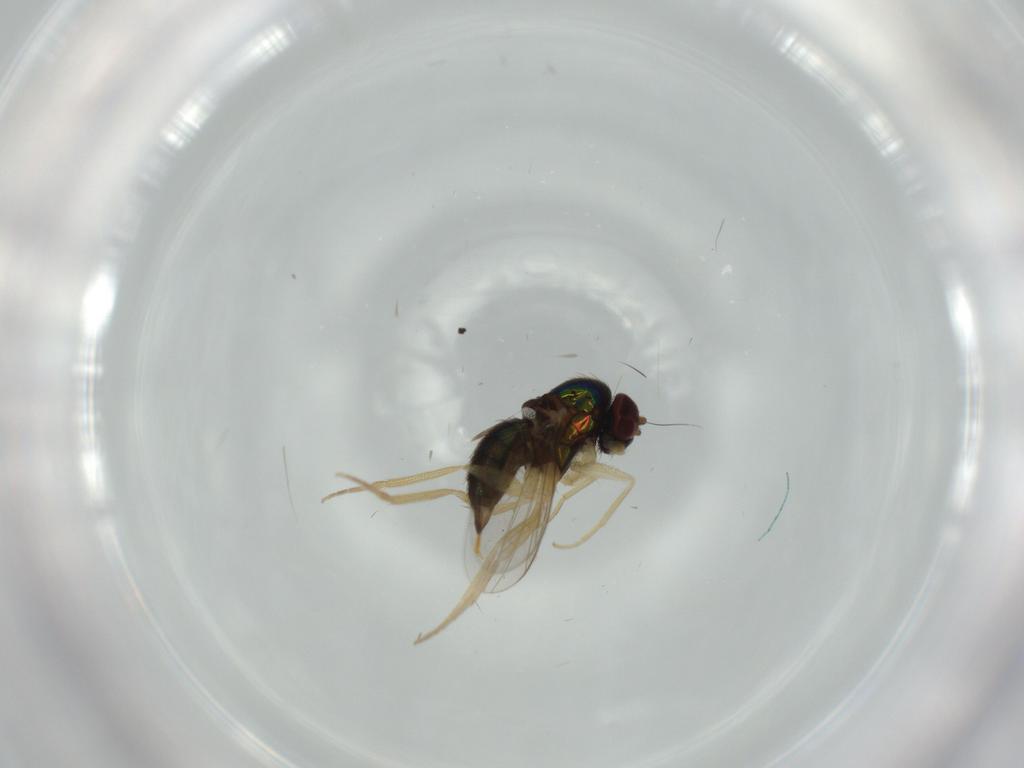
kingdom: Animalia
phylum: Arthropoda
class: Insecta
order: Diptera
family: Dolichopodidae
